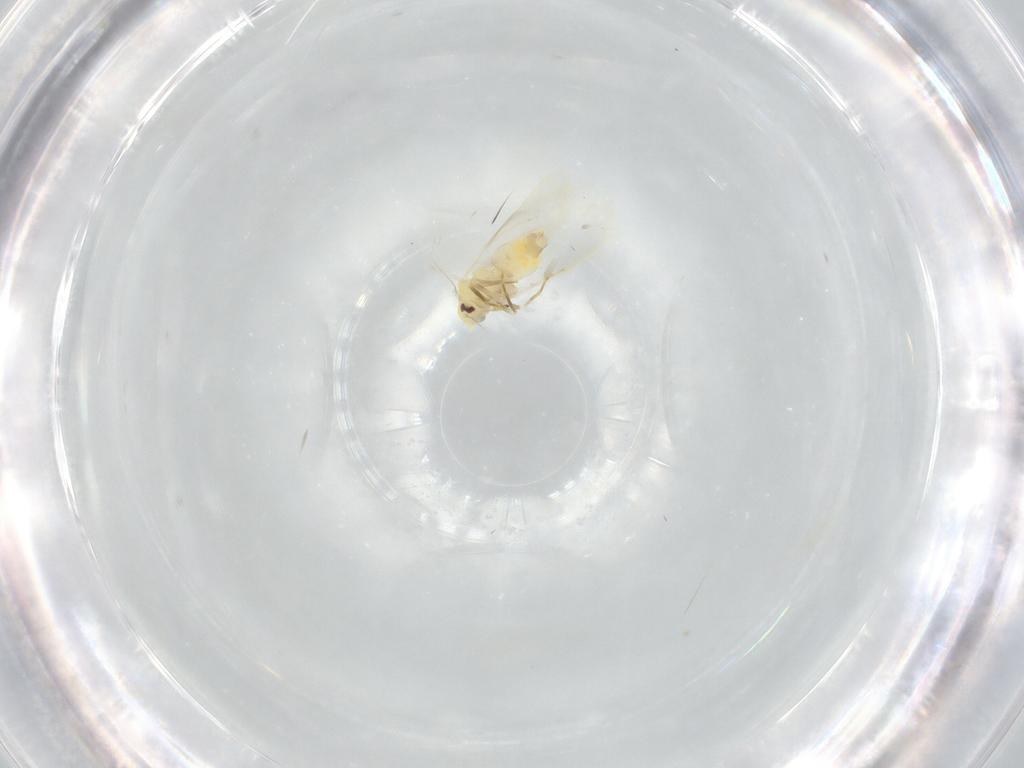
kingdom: Animalia
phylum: Arthropoda
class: Insecta
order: Hemiptera
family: Aleyrodidae
